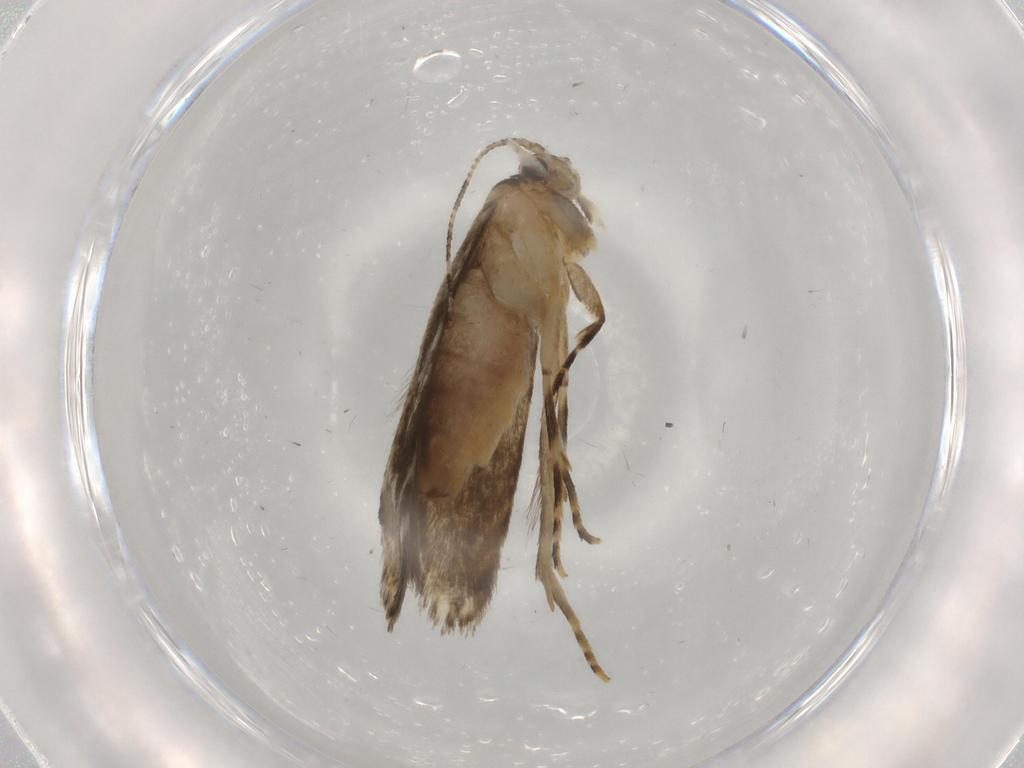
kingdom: Animalia
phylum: Arthropoda
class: Insecta
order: Lepidoptera
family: Tineidae
